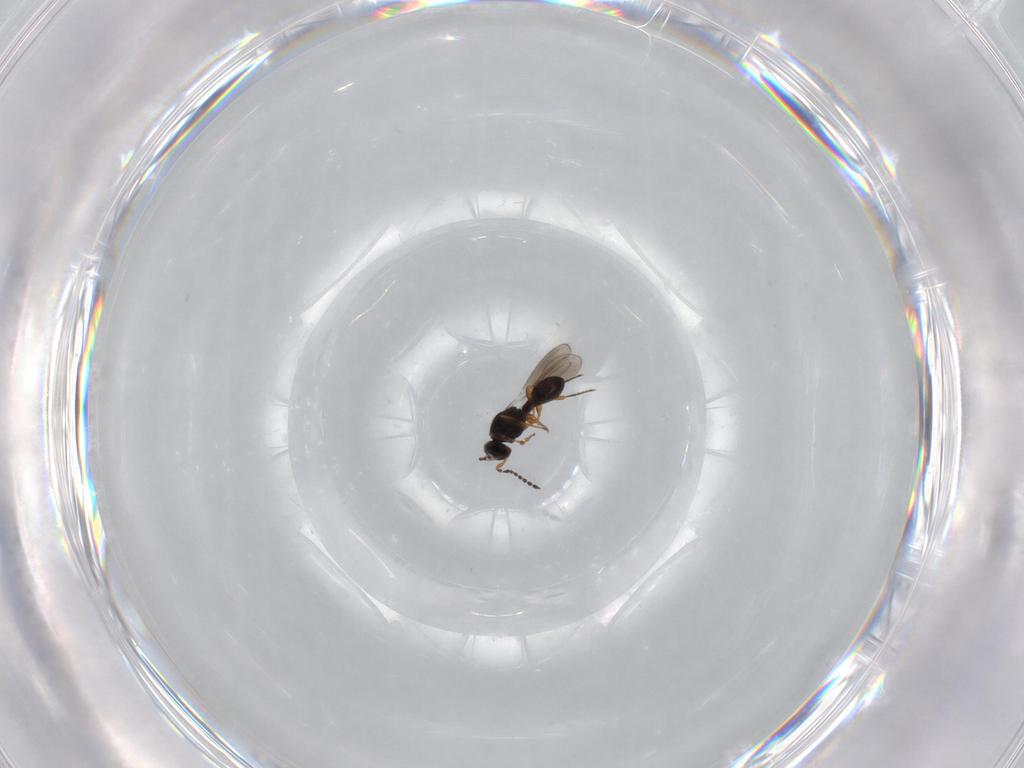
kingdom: Animalia
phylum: Arthropoda
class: Insecta
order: Hymenoptera
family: Platygastridae
